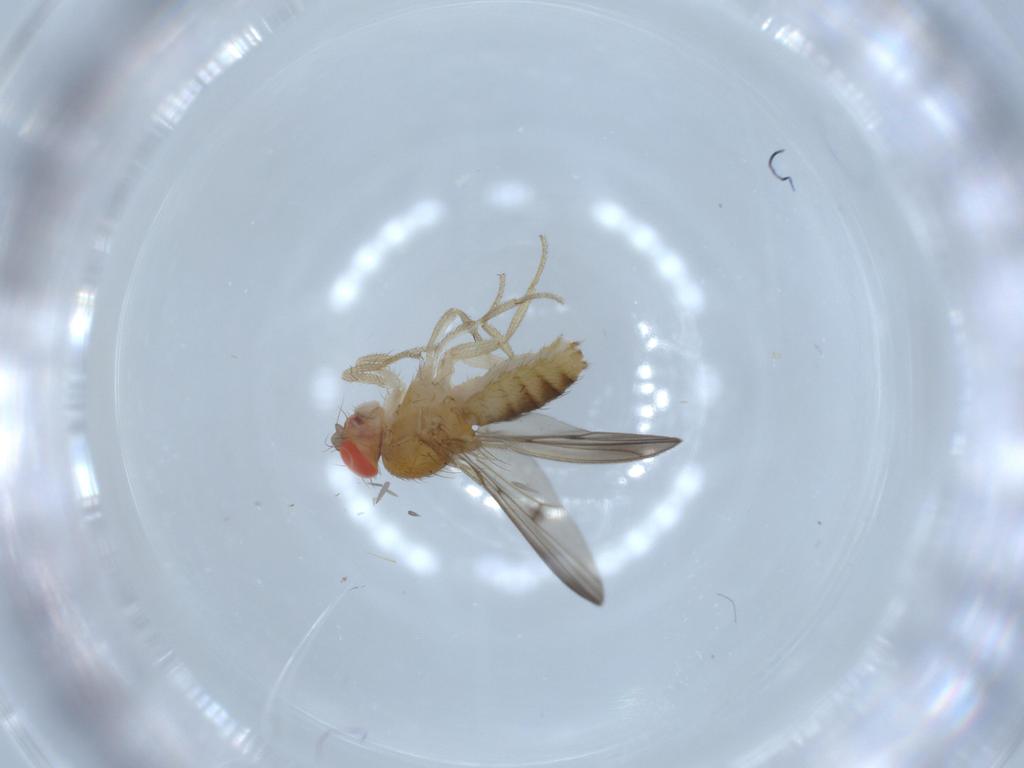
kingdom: Animalia
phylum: Arthropoda
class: Insecta
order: Diptera
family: Drosophilidae
